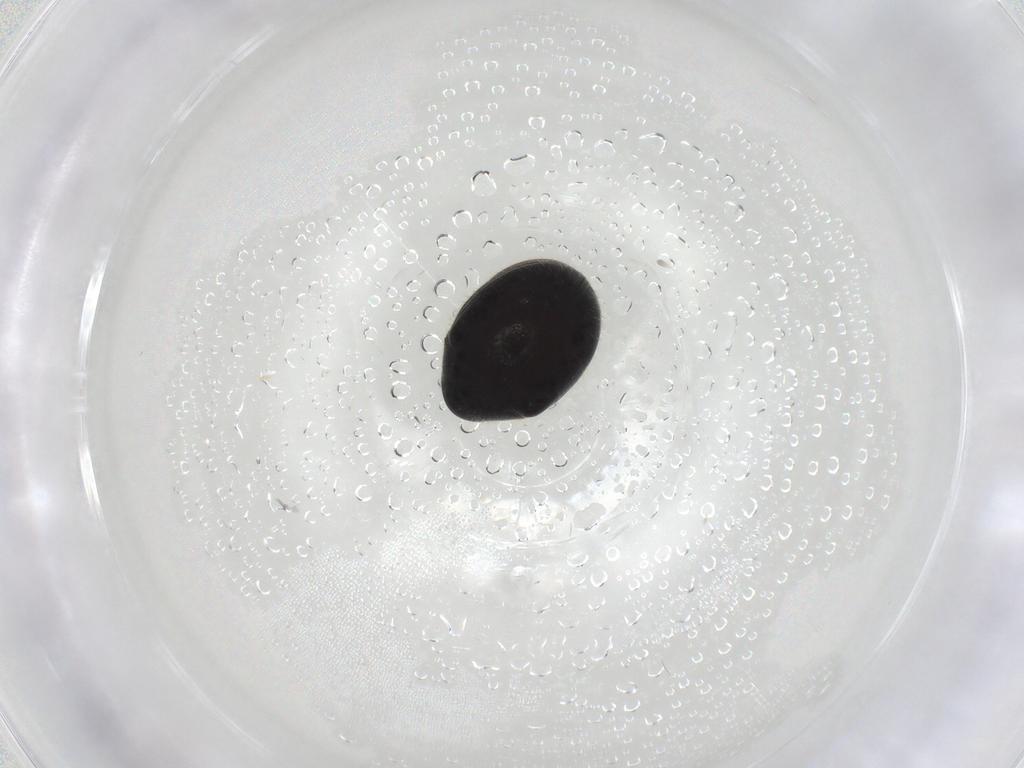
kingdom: Animalia
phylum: Arthropoda
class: Insecta
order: Coleoptera
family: Ptinidae
